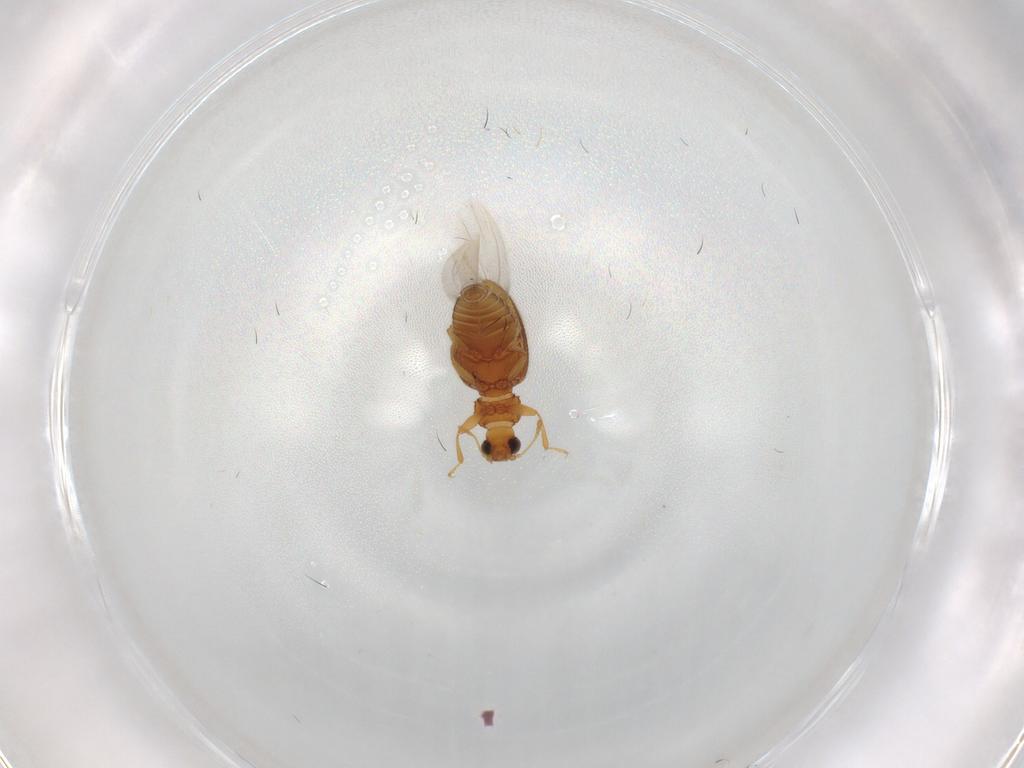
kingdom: Animalia
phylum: Arthropoda
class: Insecta
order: Coleoptera
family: Latridiidae
